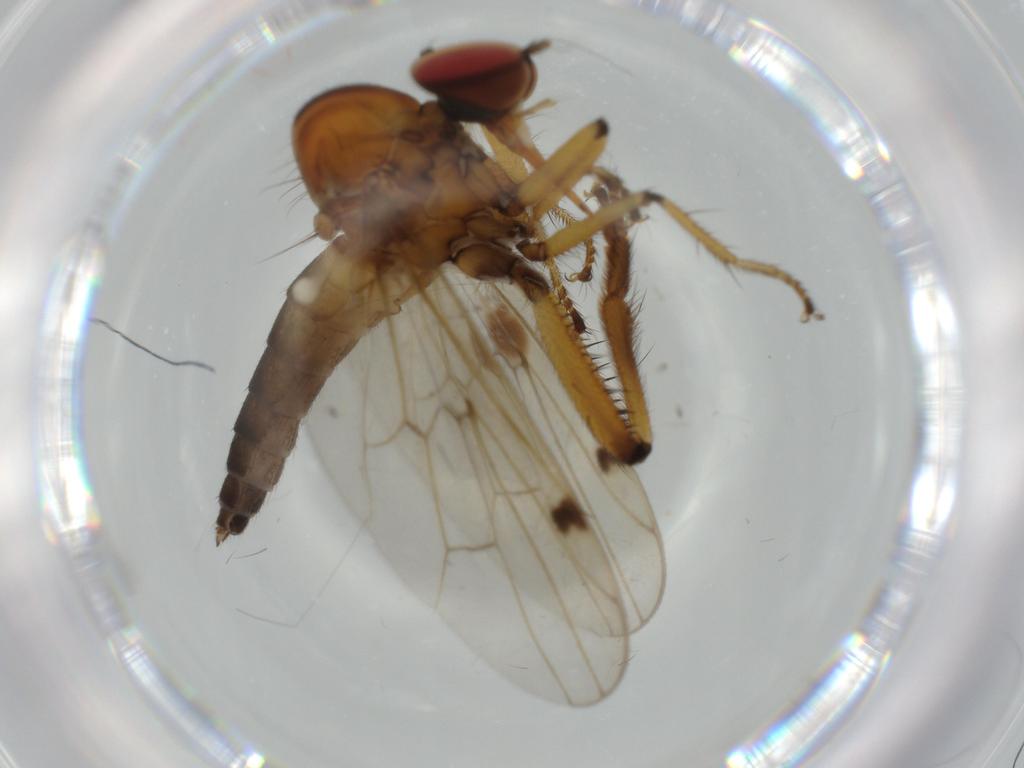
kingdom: Animalia
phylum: Arthropoda
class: Insecta
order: Diptera
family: Hybotidae
